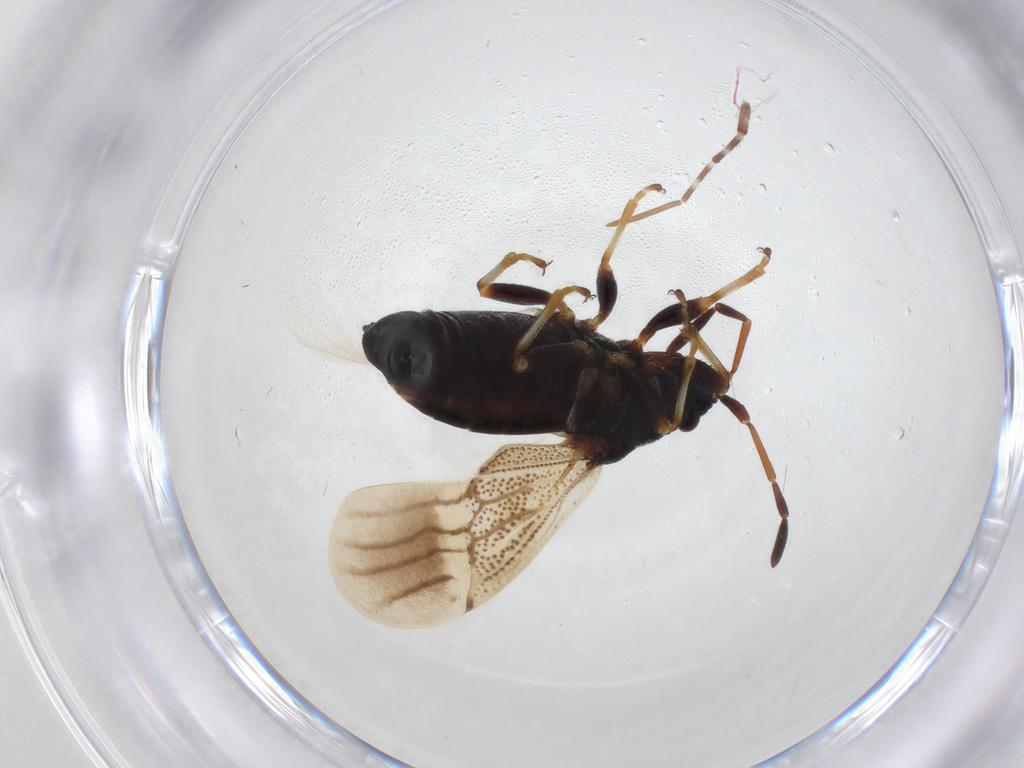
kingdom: Animalia
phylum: Arthropoda
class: Insecta
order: Hemiptera
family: Oxycarenidae
